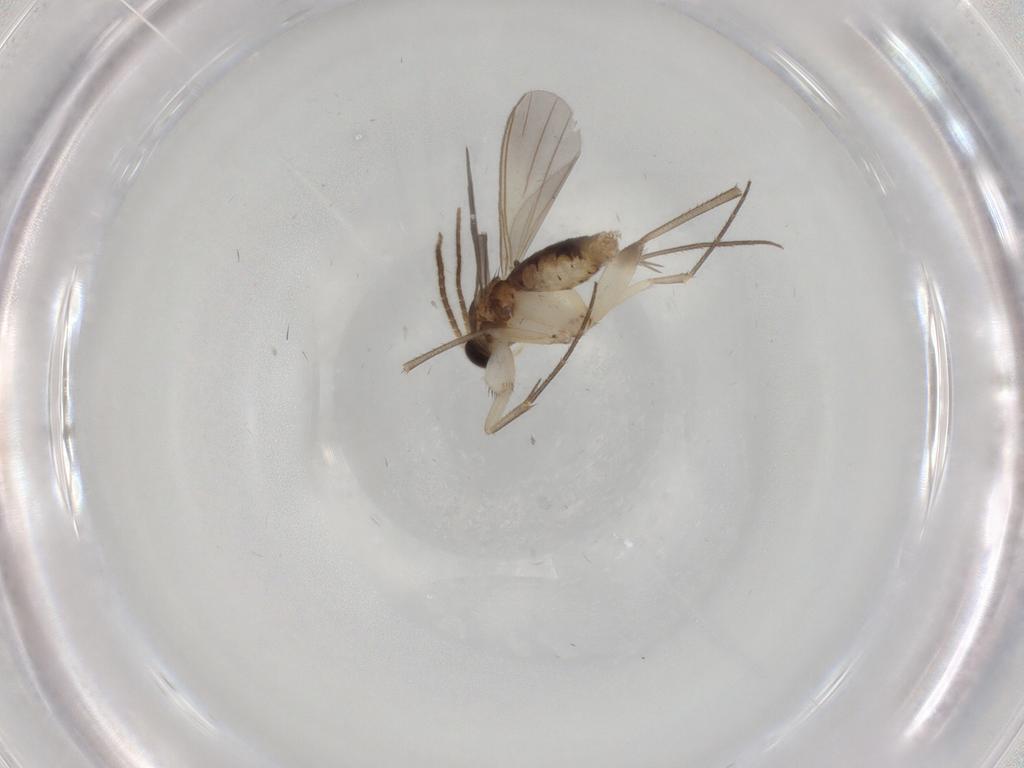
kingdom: Animalia
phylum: Arthropoda
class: Insecta
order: Diptera
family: Mycetophilidae
